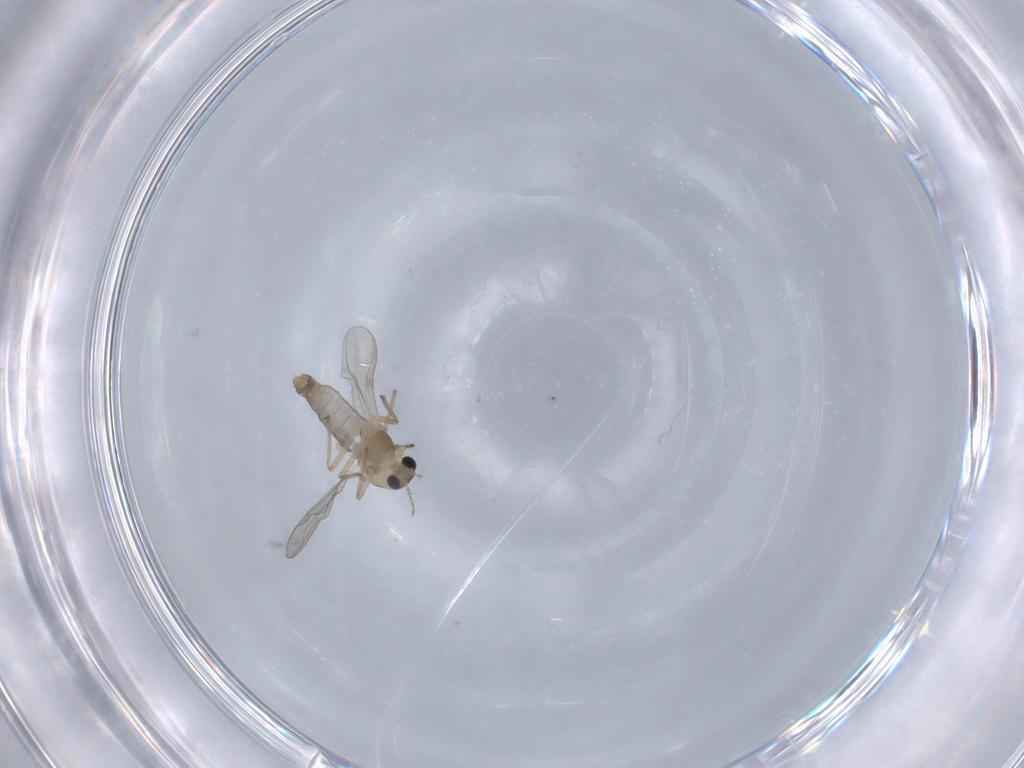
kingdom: Animalia
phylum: Arthropoda
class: Insecta
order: Diptera
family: Chironomidae
